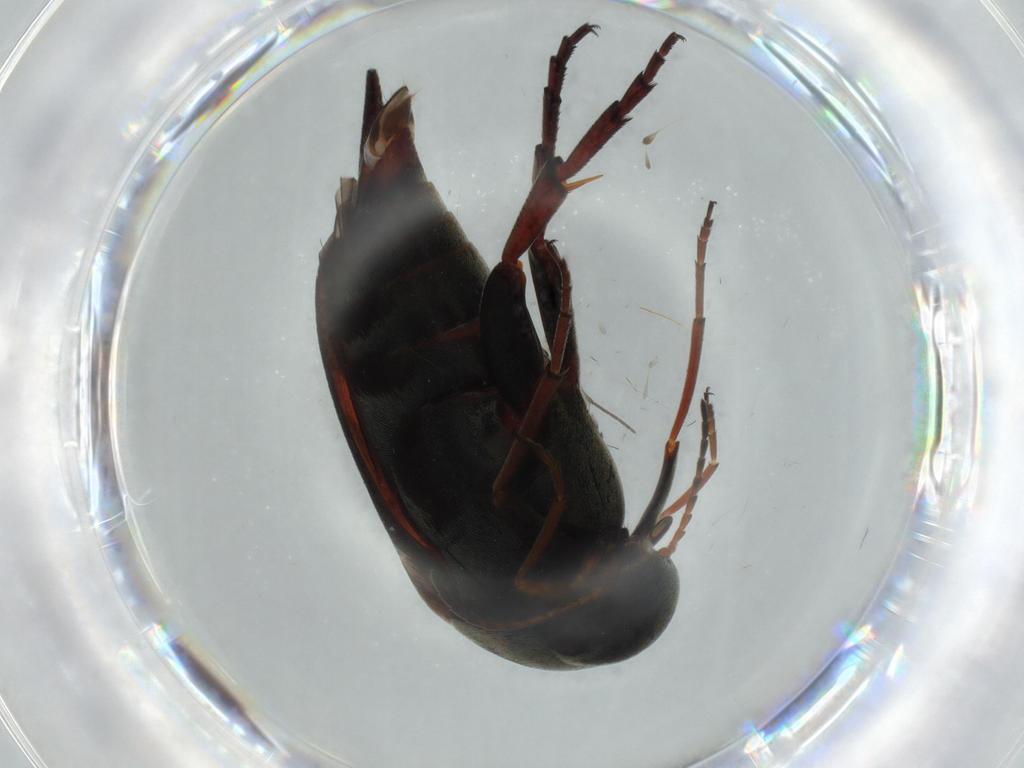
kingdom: Animalia
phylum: Arthropoda
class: Insecta
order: Coleoptera
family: Mordellidae
